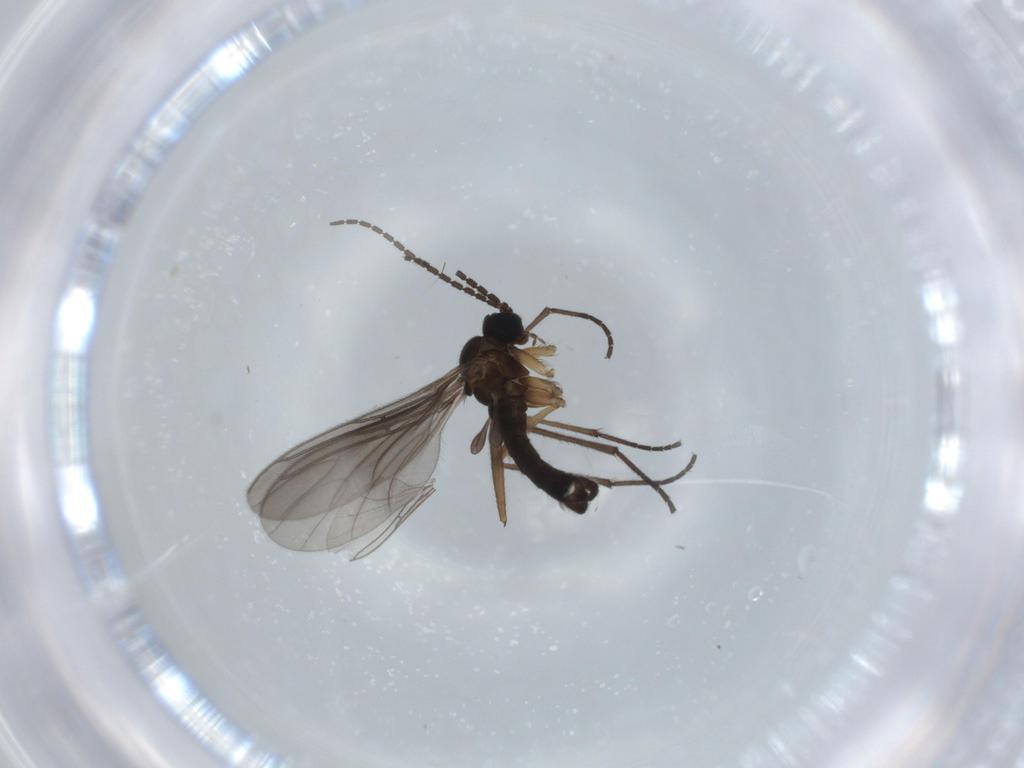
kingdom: Animalia
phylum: Arthropoda
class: Insecta
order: Diptera
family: Sciaridae
